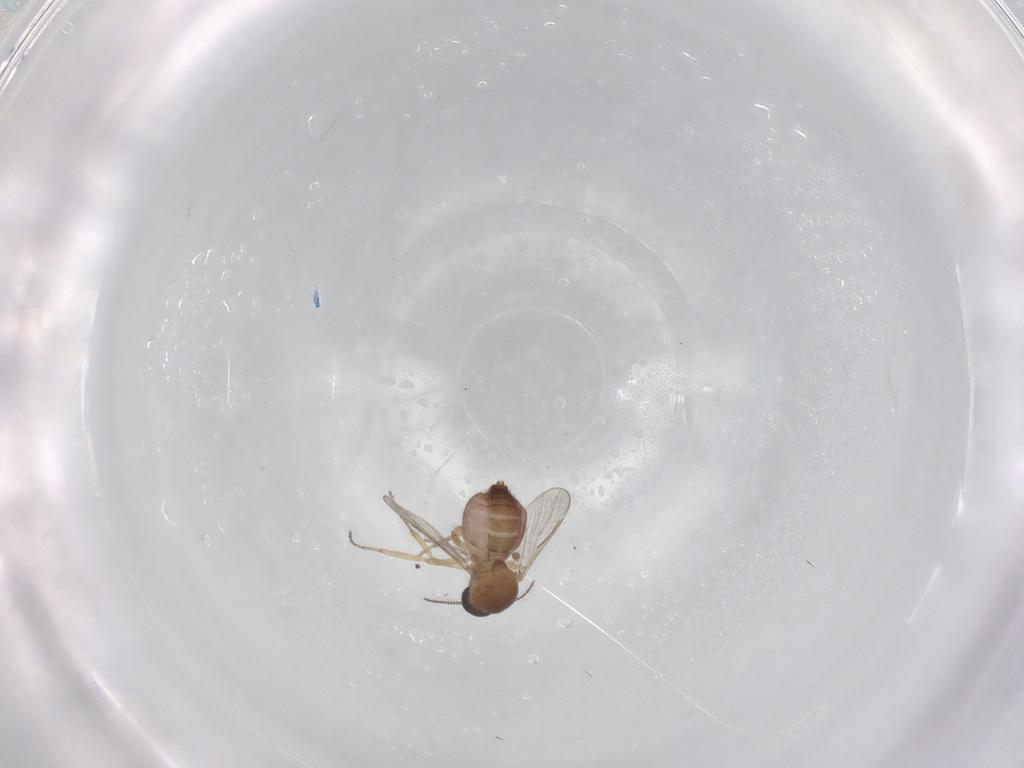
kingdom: Animalia
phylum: Arthropoda
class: Insecta
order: Diptera
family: Ceratopogonidae
